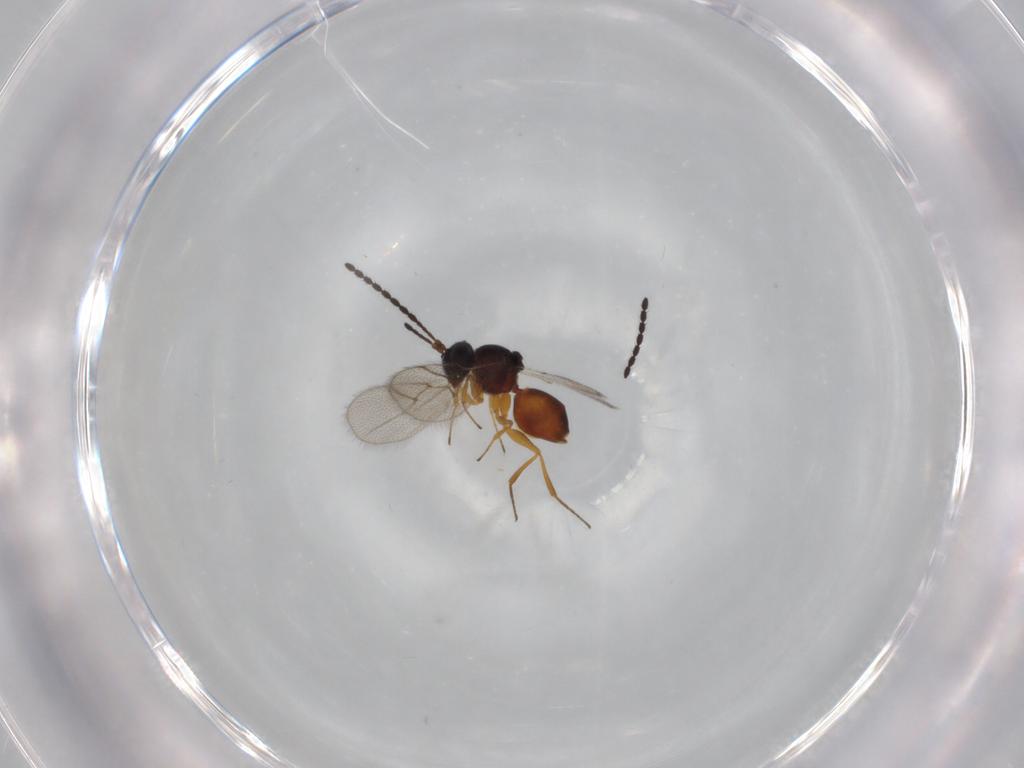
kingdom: Animalia
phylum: Arthropoda
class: Insecta
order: Hymenoptera
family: Figitidae
